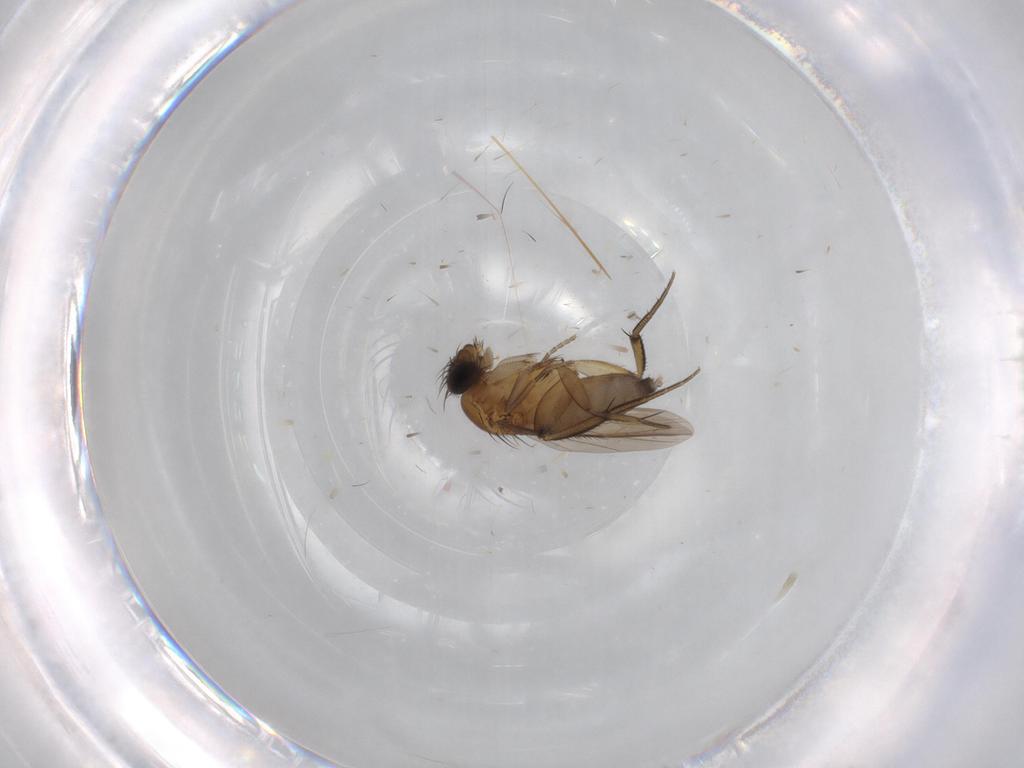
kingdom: Animalia
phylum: Arthropoda
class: Insecta
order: Diptera
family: Phoridae
